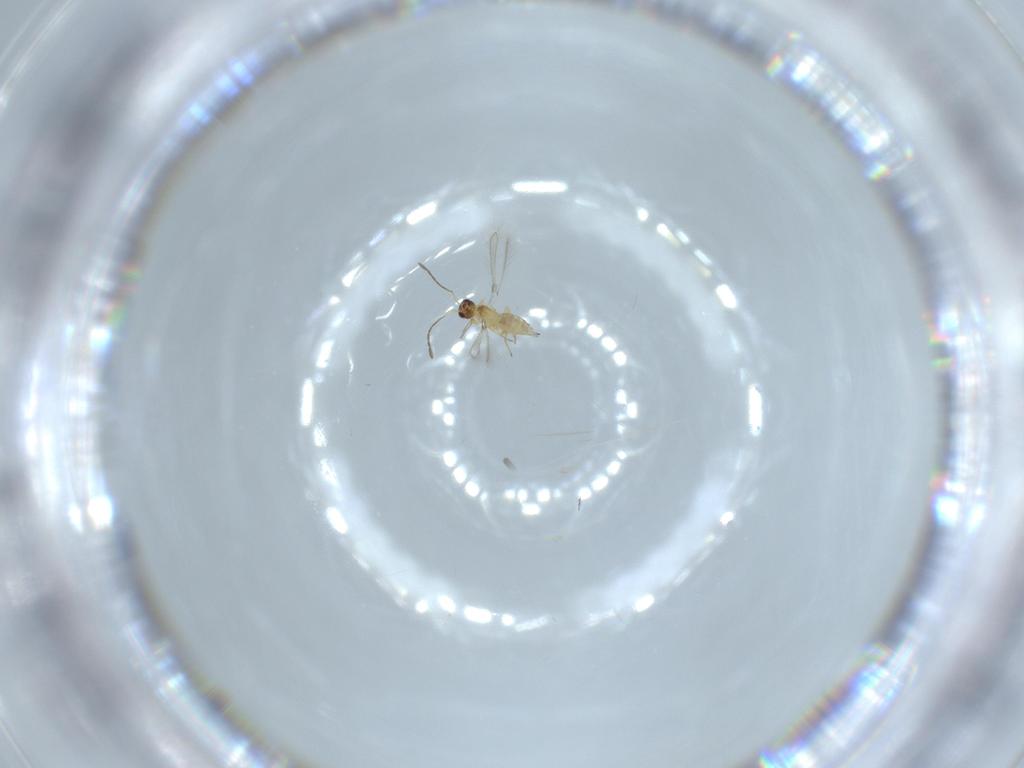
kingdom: Animalia
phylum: Arthropoda
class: Insecta
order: Hymenoptera
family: Mymaridae
